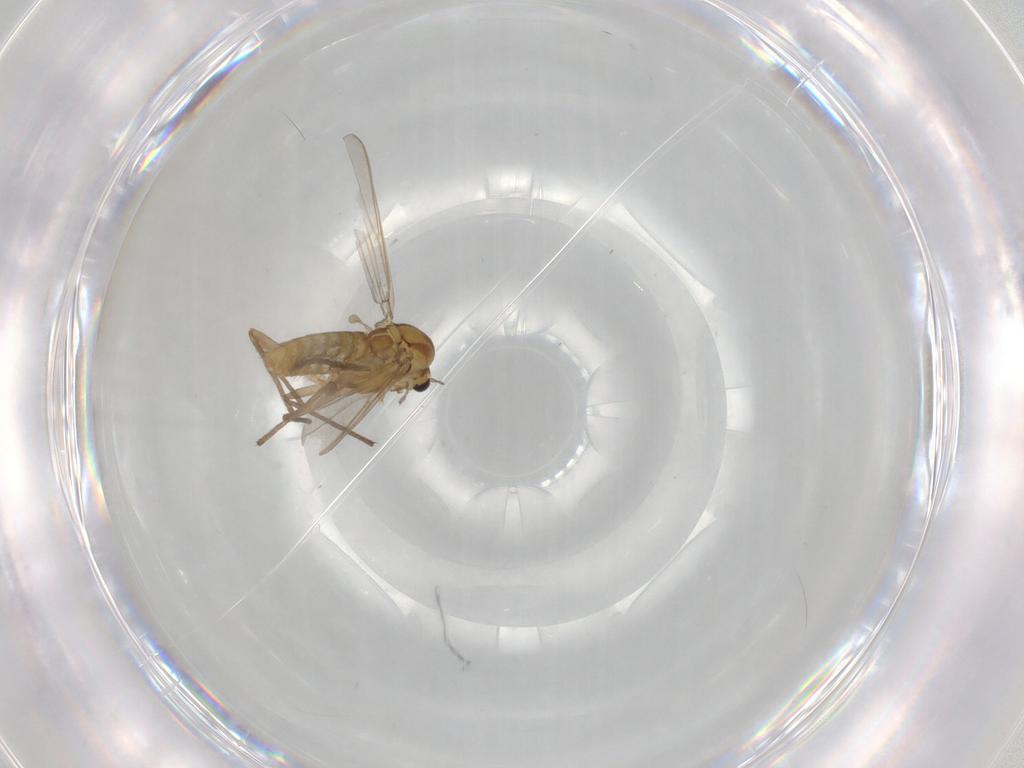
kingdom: Animalia
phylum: Arthropoda
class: Insecta
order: Diptera
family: Chironomidae
